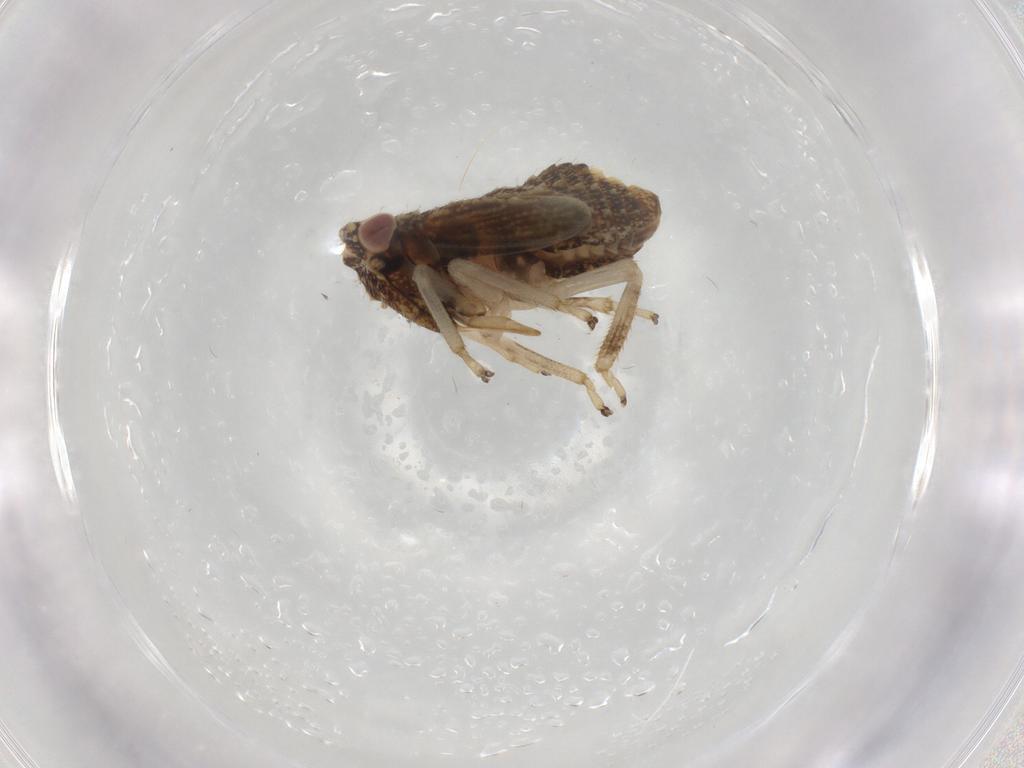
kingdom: Animalia
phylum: Arthropoda
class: Insecta
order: Hemiptera
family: Cicadellidae
